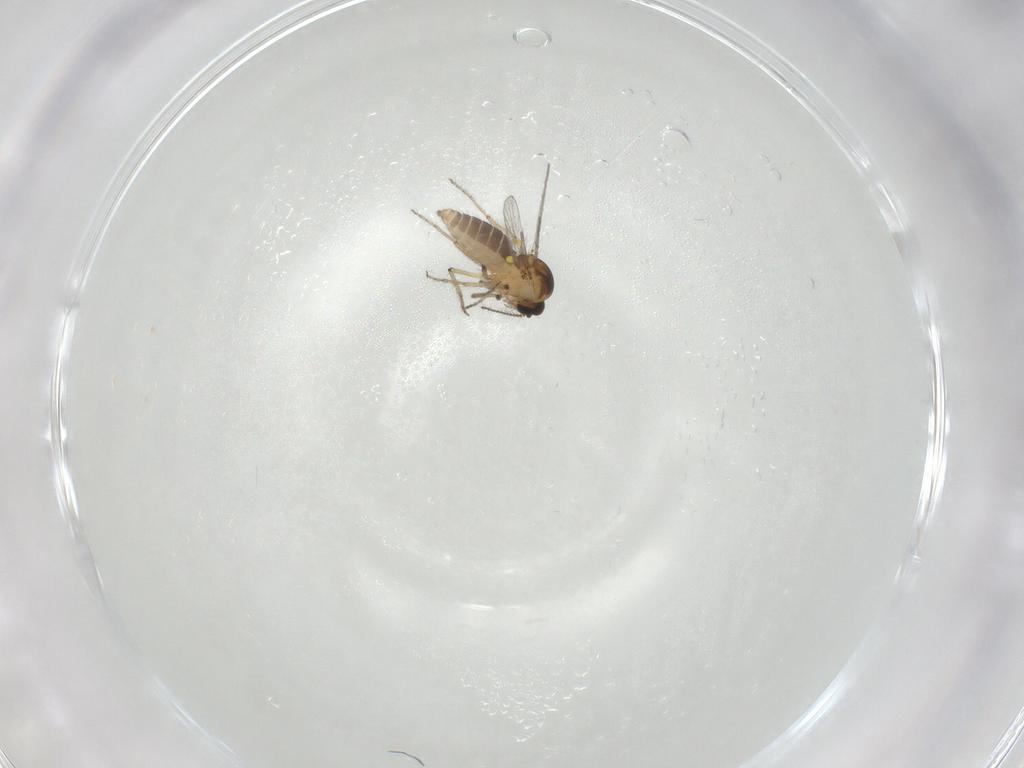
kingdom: Animalia
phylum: Arthropoda
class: Insecta
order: Diptera
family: Ceratopogonidae
